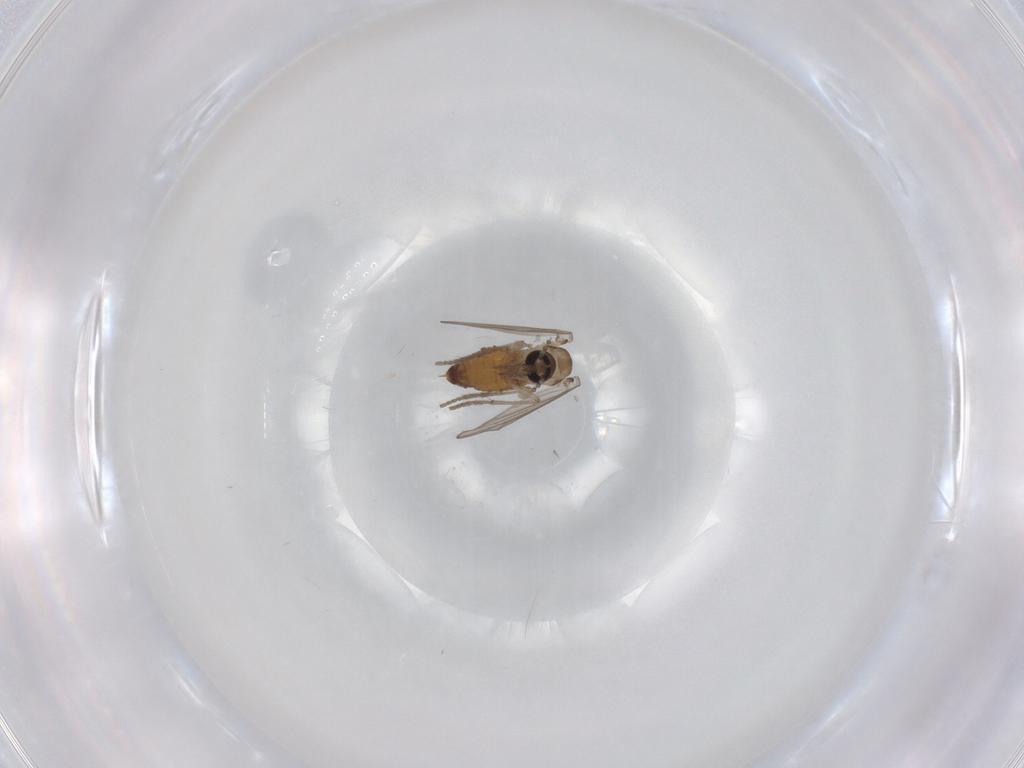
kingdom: Animalia
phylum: Arthropoda
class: Insecta
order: Diptera
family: Psychodidae
